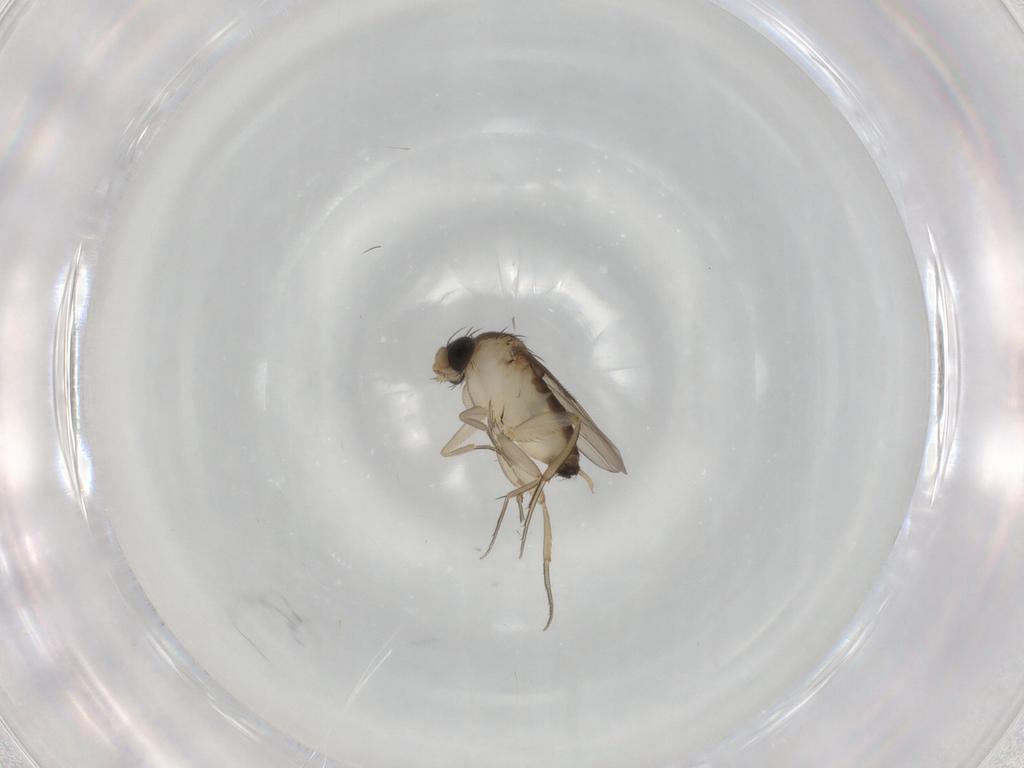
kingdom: Animalia
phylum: Arthropoda
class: Insecta
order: Diptera
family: Phoridae
